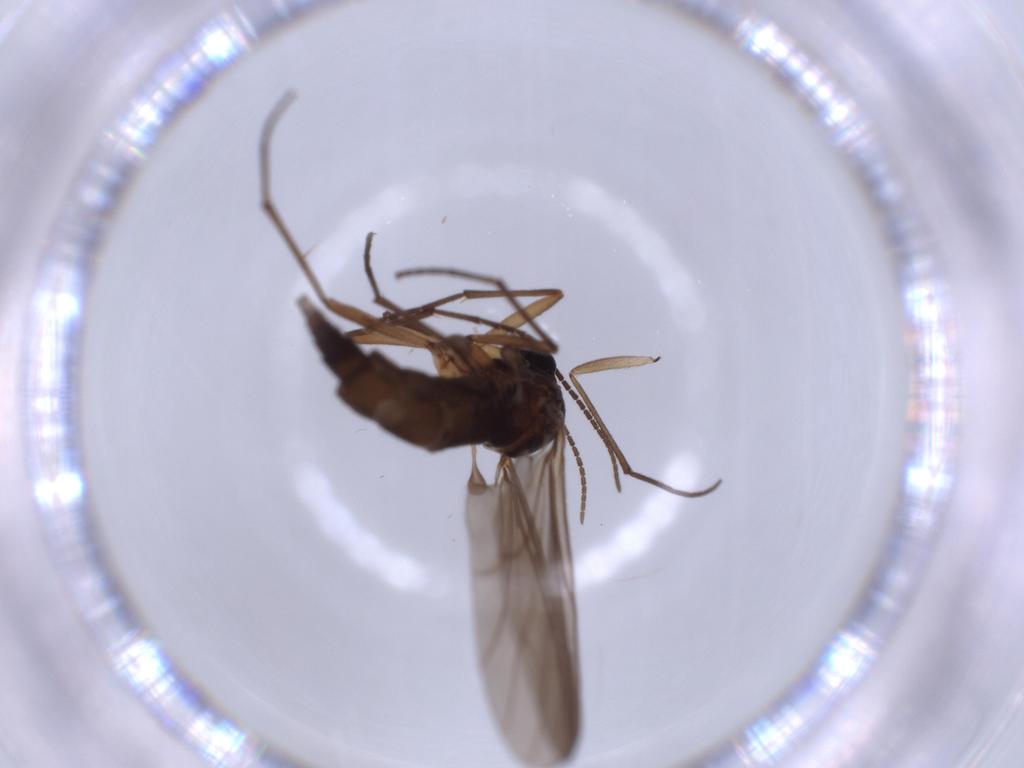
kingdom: Animalia
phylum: Arthropoda
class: Insecta
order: Diptera
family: Sciaridae
